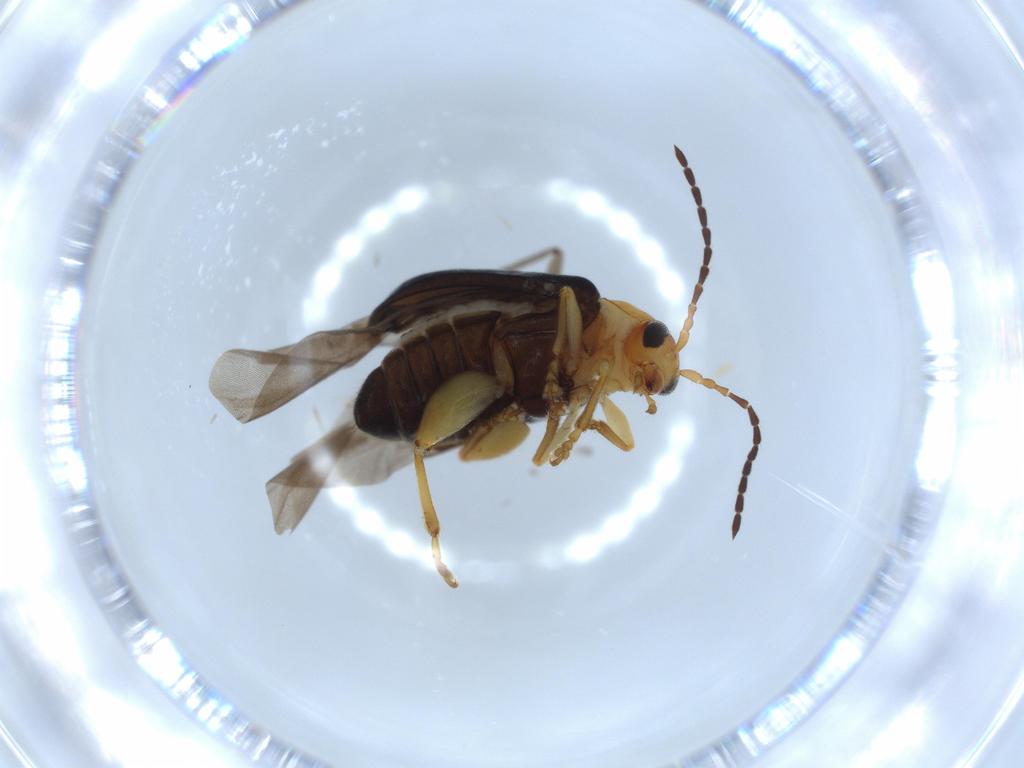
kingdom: Animalia
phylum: Arthropoda
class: Insecta
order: Coleoptera
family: Chrysomelidae
